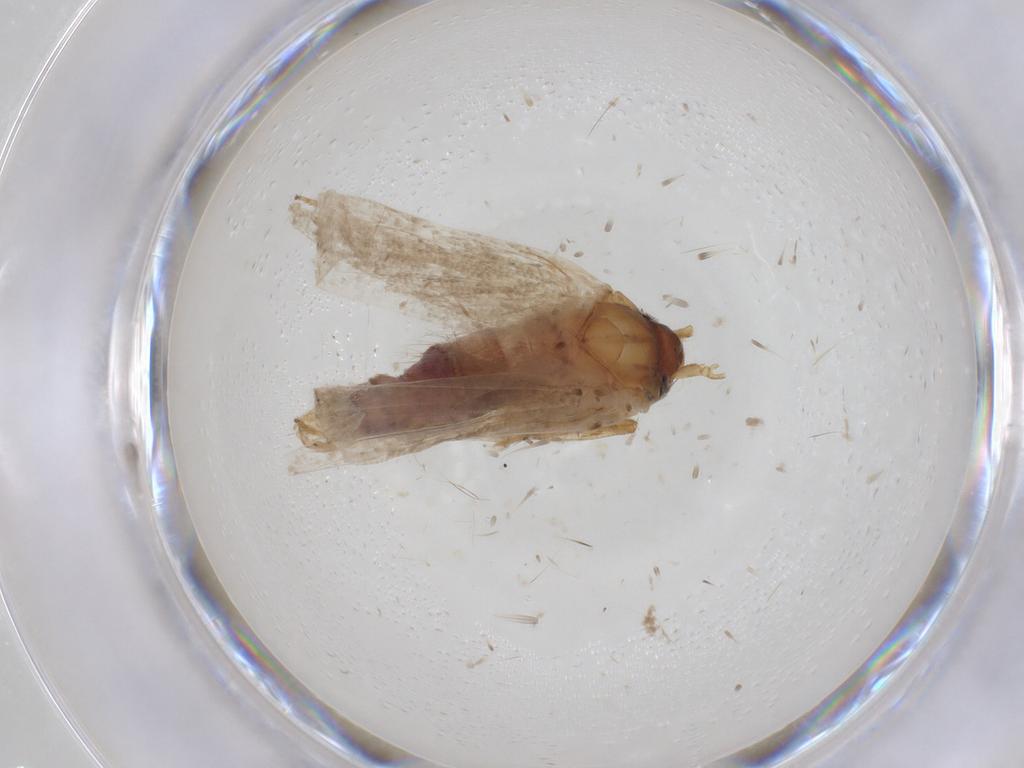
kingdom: Animalia
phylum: Arthropoda
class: Insecta
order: Lepidoptera
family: Blastobasidae
